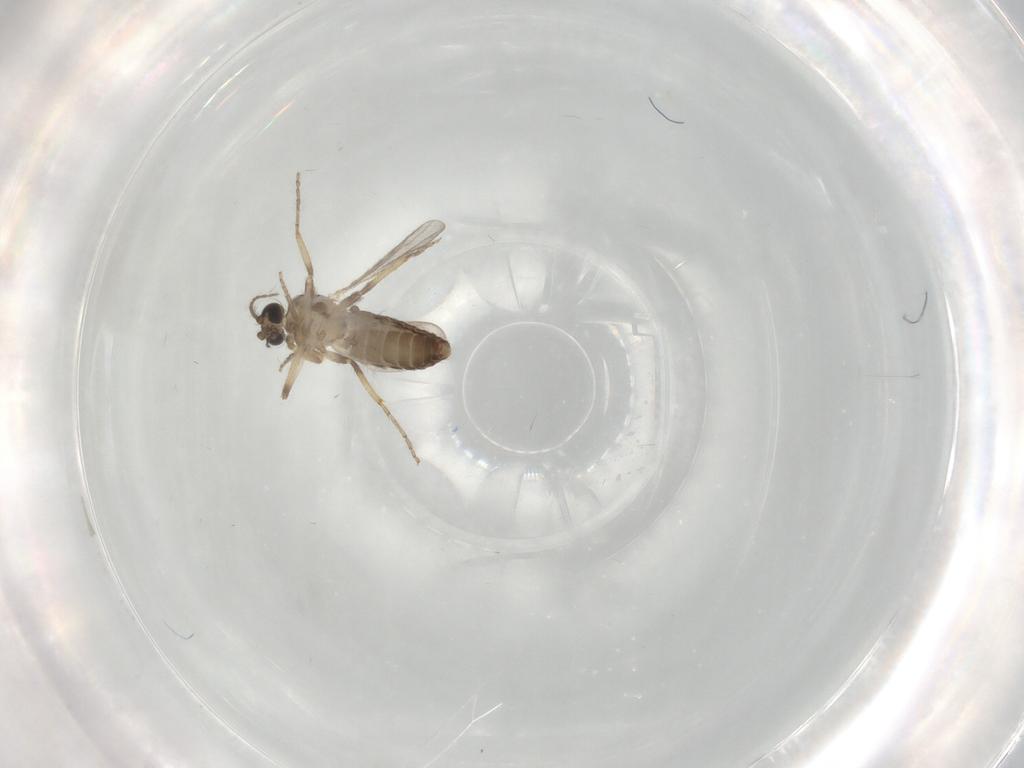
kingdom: Animalia
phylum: Arthropoda
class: Insecta
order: Diptera
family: Ceratopogonidae
